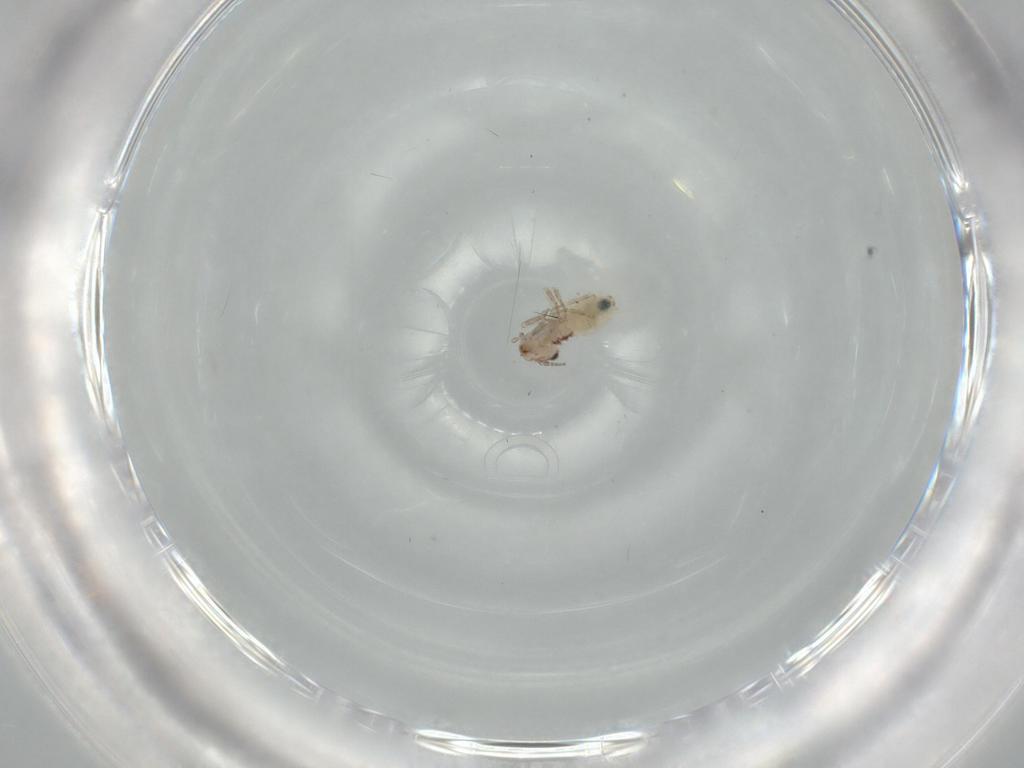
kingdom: Animalia
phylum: Arthropoda
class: Insecta
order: Psocodea
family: Lepidopsocidae
